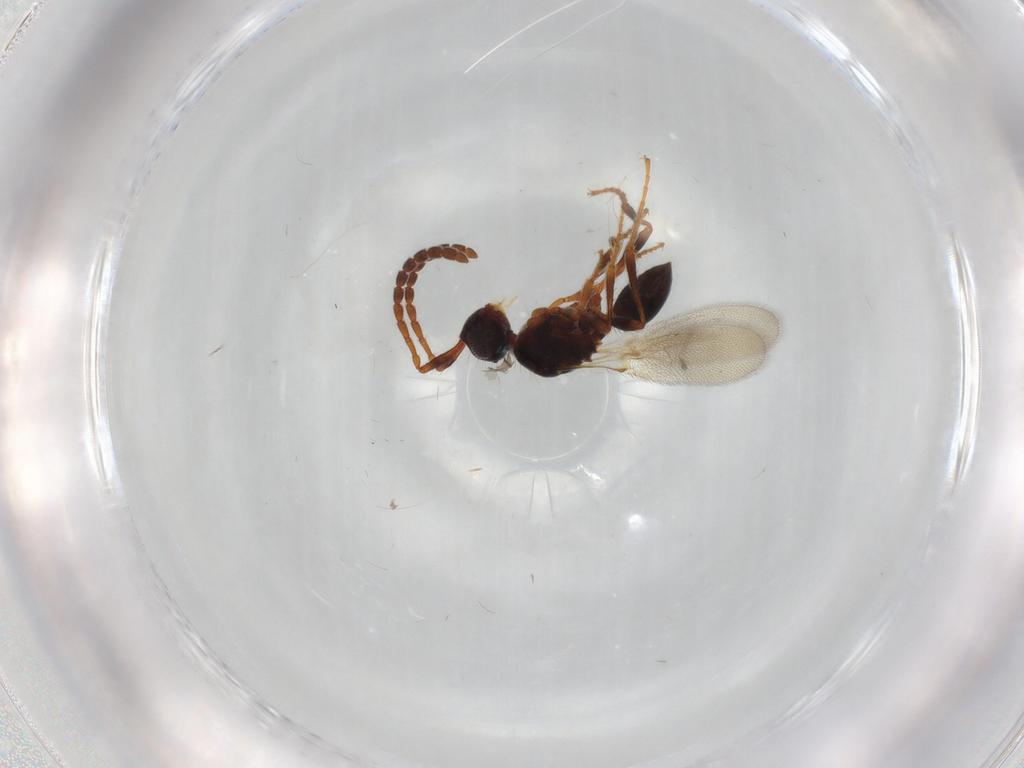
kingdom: Animalia
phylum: Arthropoda
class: Insecta
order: Hymenoptera
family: Diapriidae
